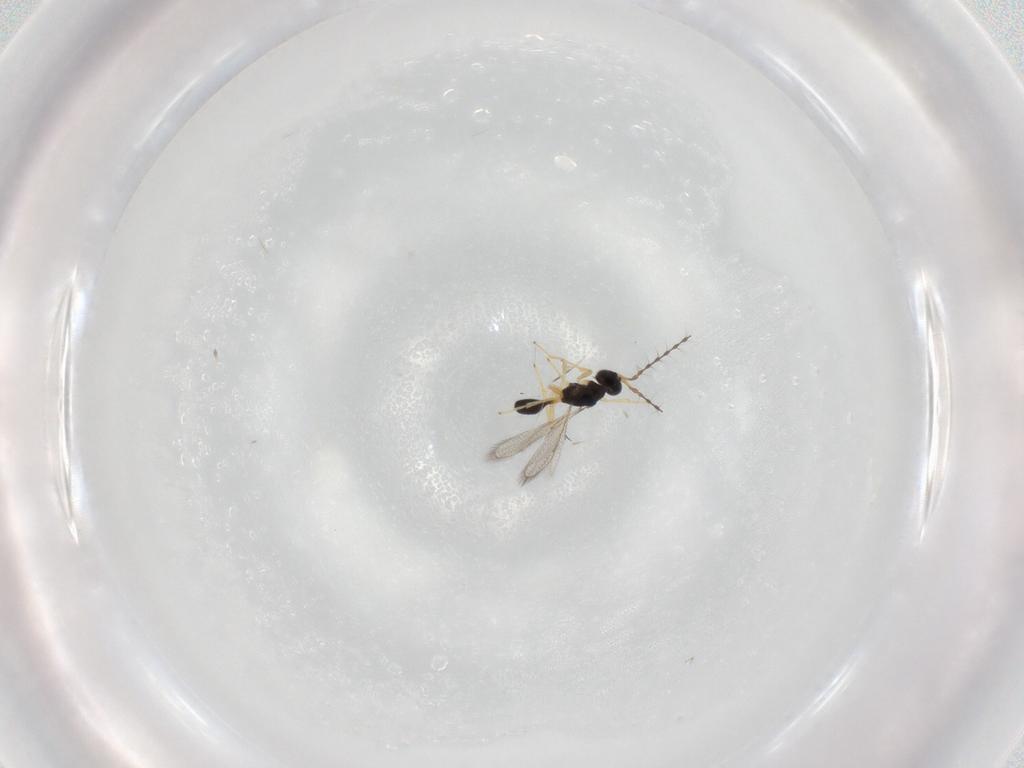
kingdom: Animalia
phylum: Arthropoda
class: Insecta
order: Hymenoptera
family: Diparidae
